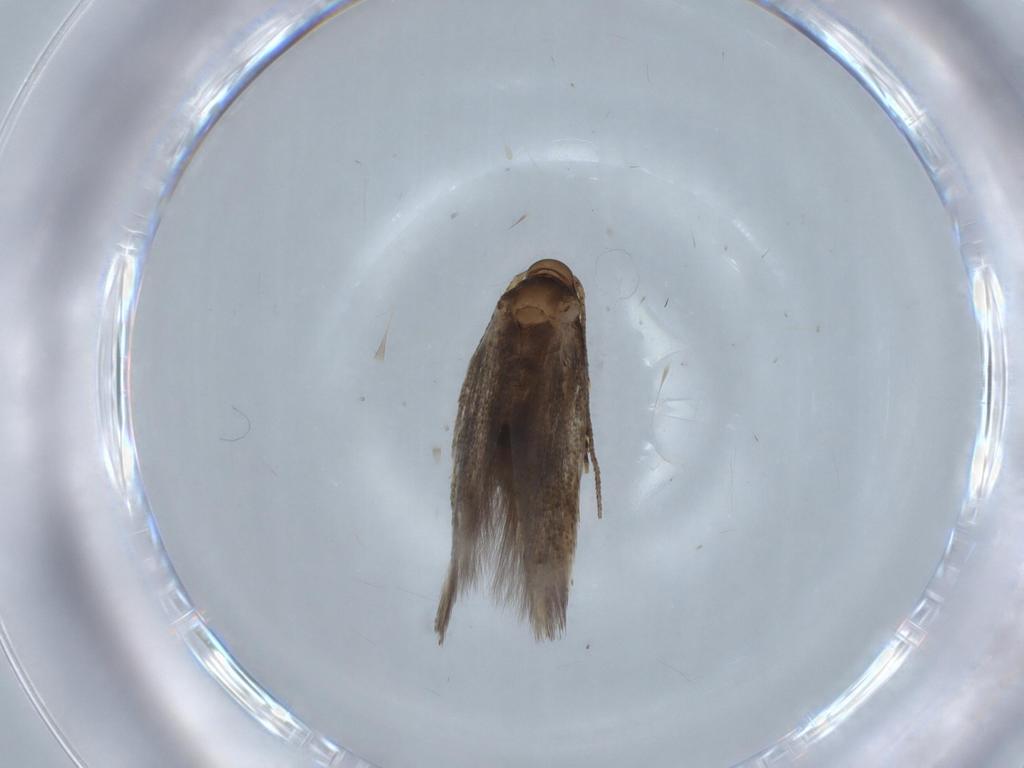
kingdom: Animalia
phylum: Arthropoda
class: Insecta
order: Lepidoptera
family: Elachistidae
